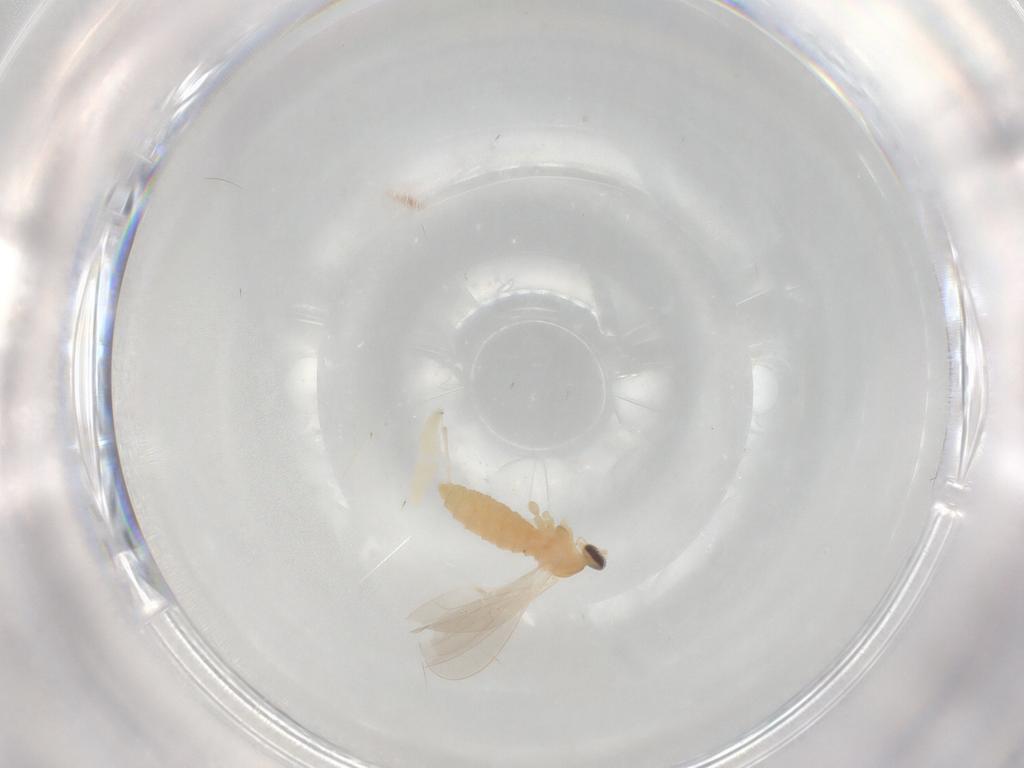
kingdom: Animalia
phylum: Arthropoda
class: Insecta
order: Diptera
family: Cecidomyiidae
